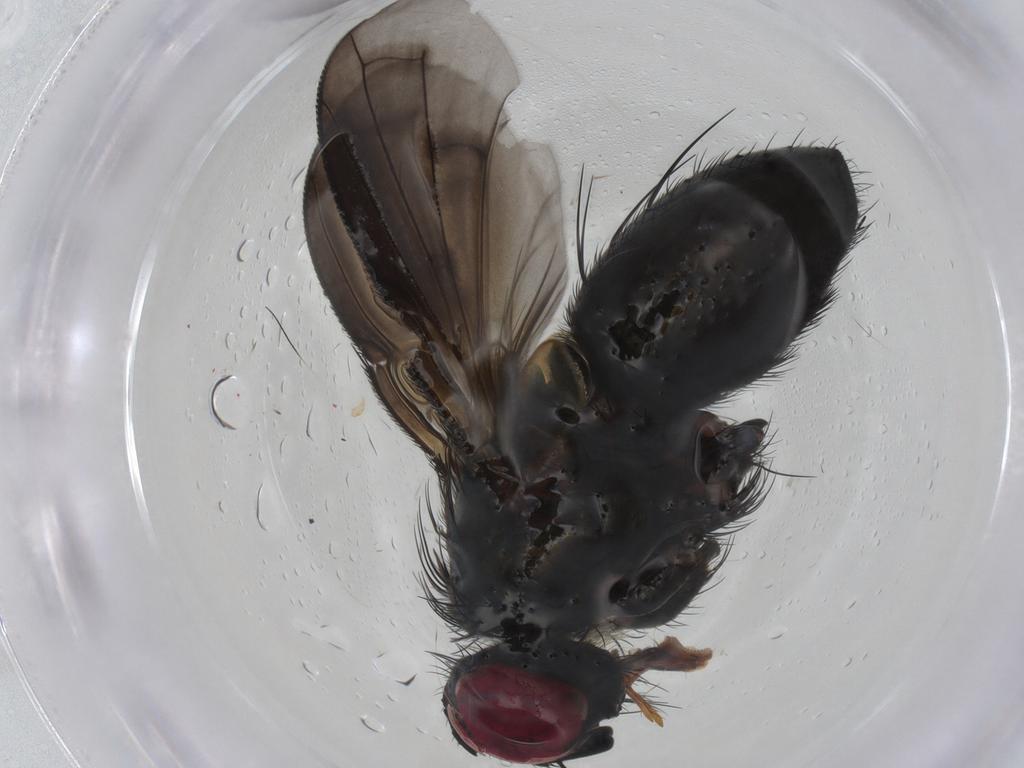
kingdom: Animalia
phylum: Arthropoda
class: Insecta
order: Diptera
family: Tachinidae
